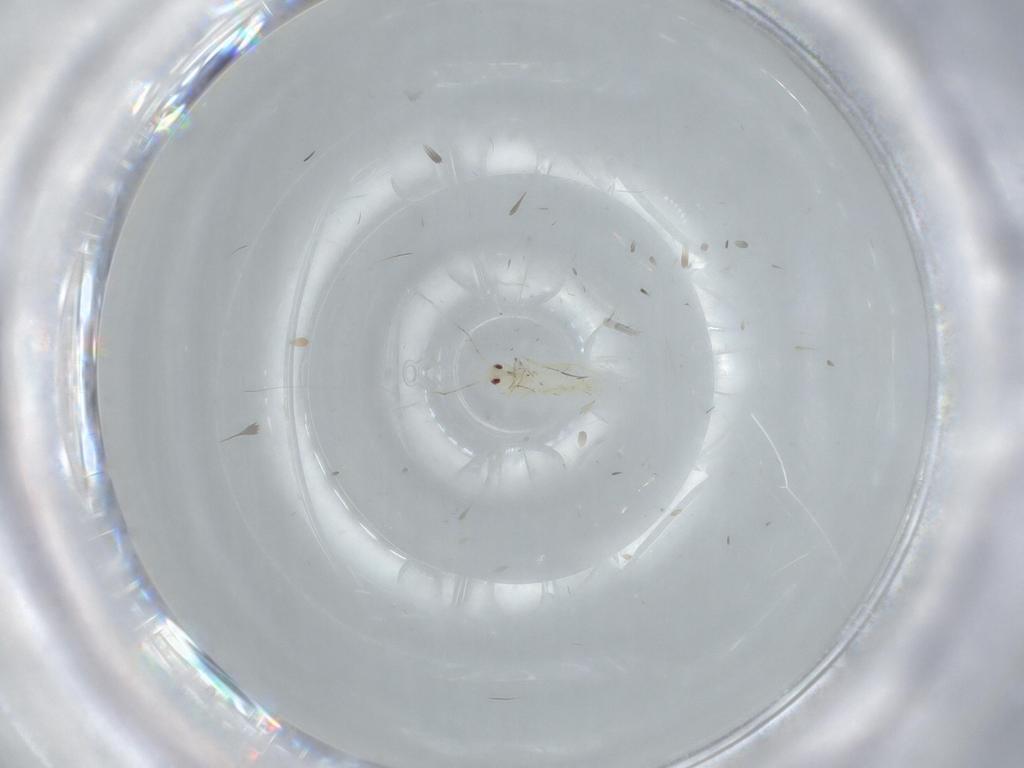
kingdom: Animalia
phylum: Arthropoda
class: Insecta
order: Hemiptera
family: Aleyrodidae
